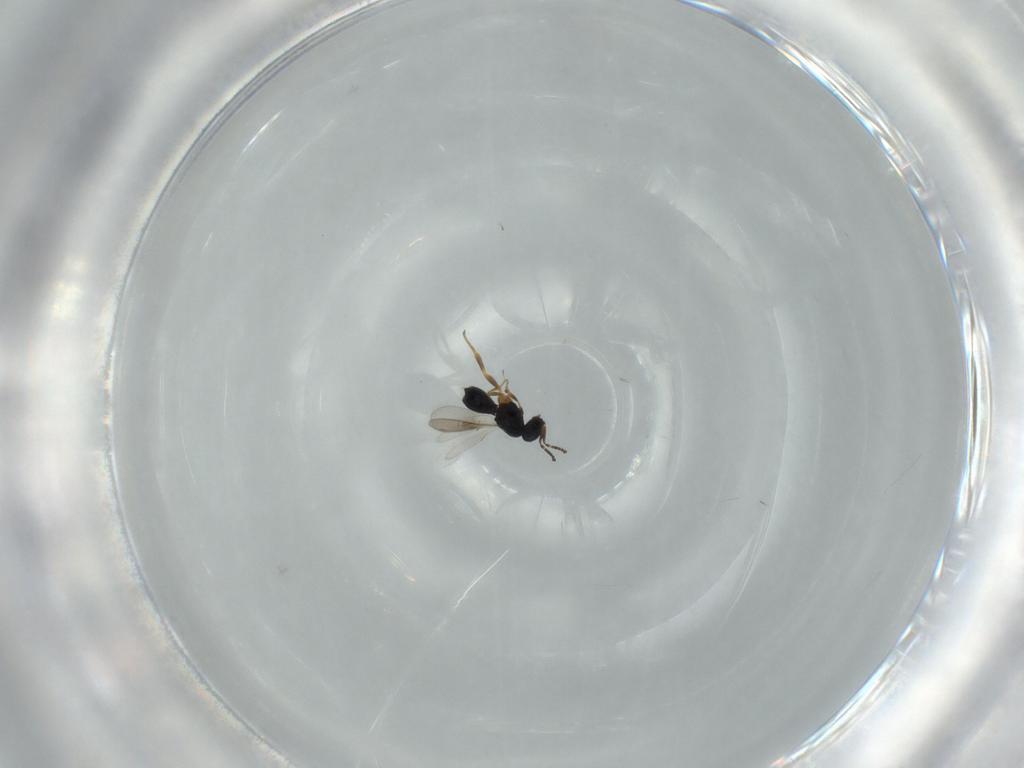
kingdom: Animalia
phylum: Arthropoda
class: Insecta
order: Hymenoptera
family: Scelionidae
